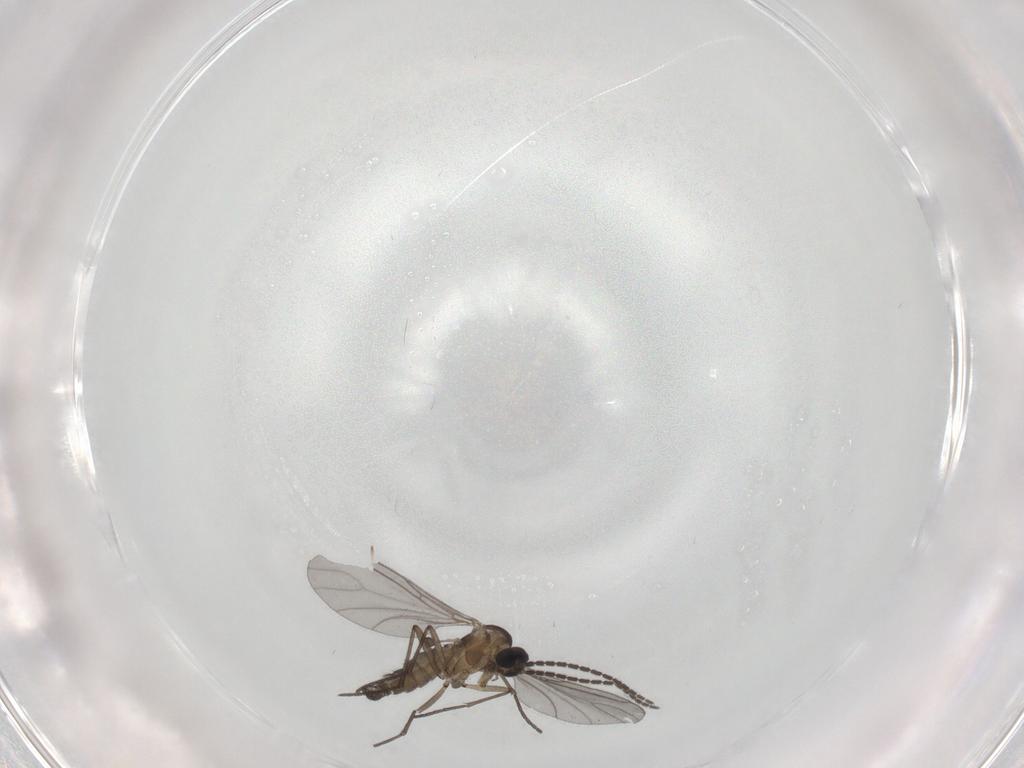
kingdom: Animalia
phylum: Arthropoda
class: Insecta
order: Diptera
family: Sciaridae
